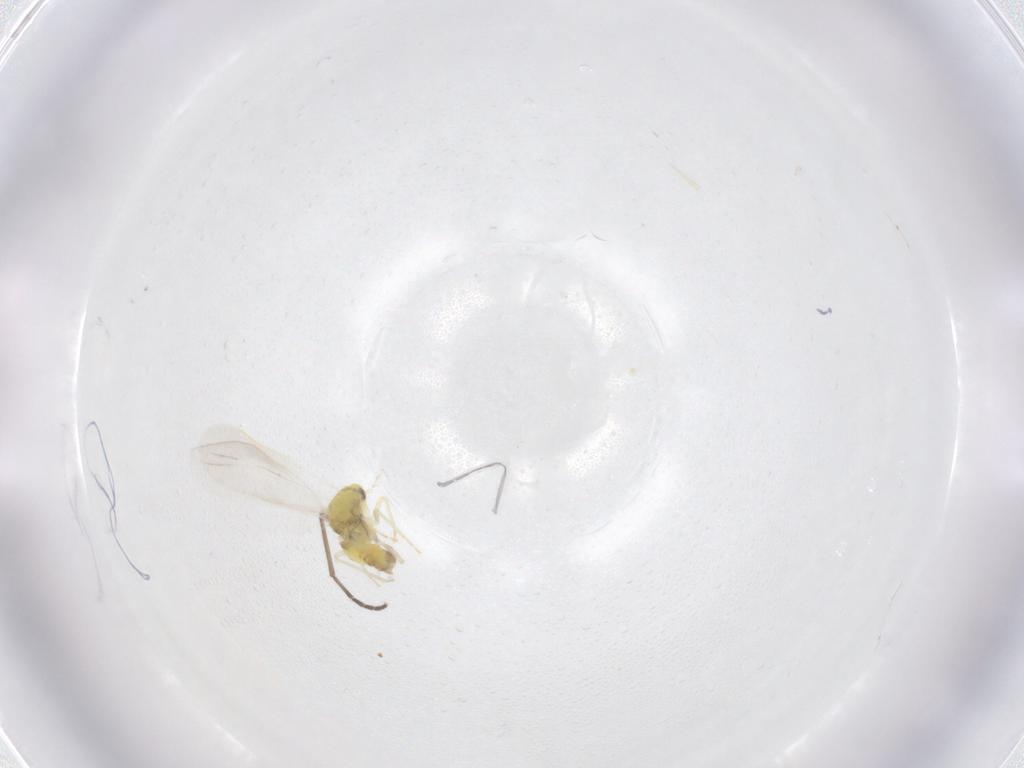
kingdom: Animalia
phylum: Arthropoda
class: Insecta
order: Hemiptera
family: Aleyrodidae
